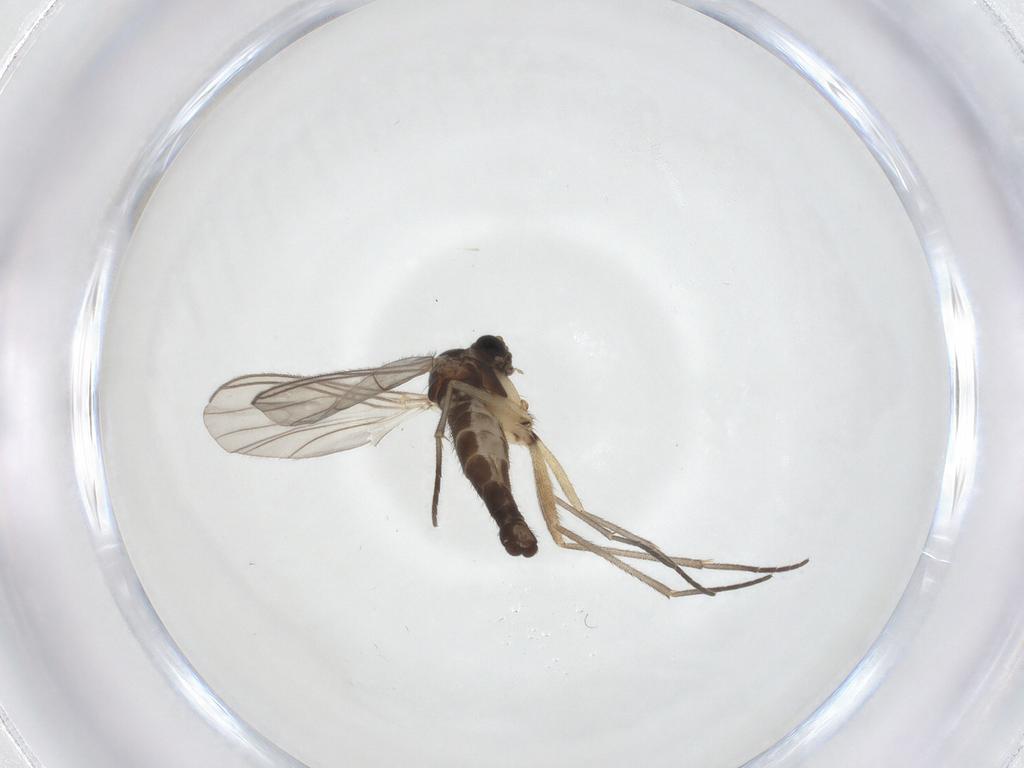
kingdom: Animalia
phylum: Arthropoda
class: Insecta
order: Diptera
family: Sciaridae
